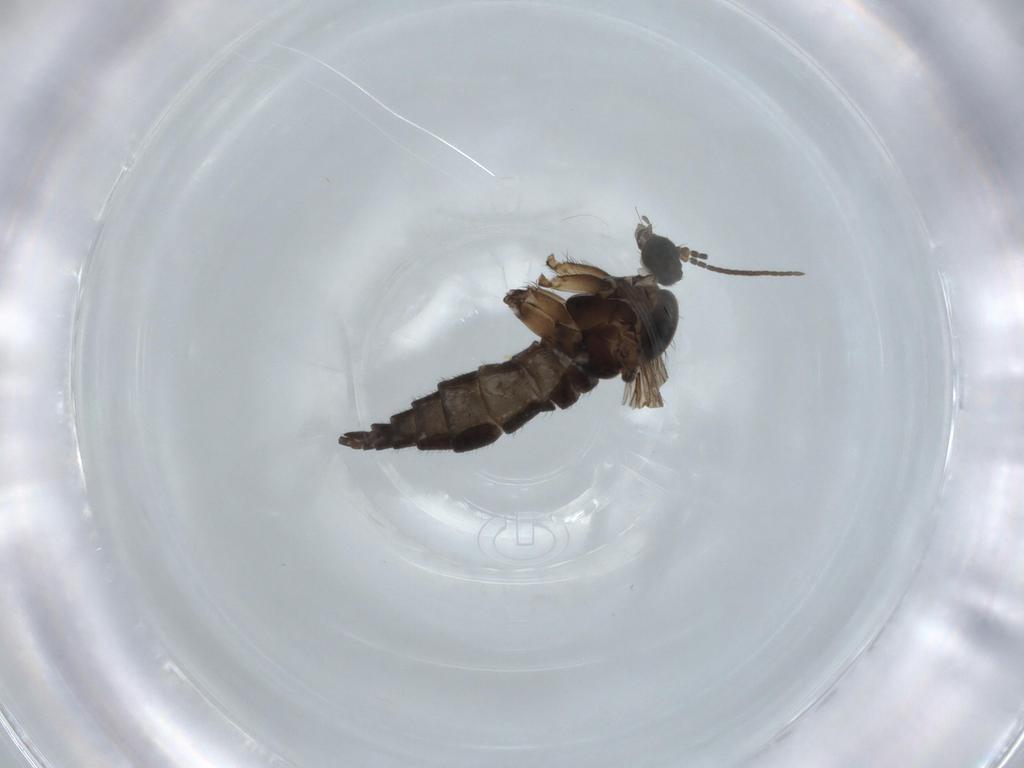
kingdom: Animalia
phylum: Arthropoda
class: Insecta
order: Diptera
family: Sciaridae
